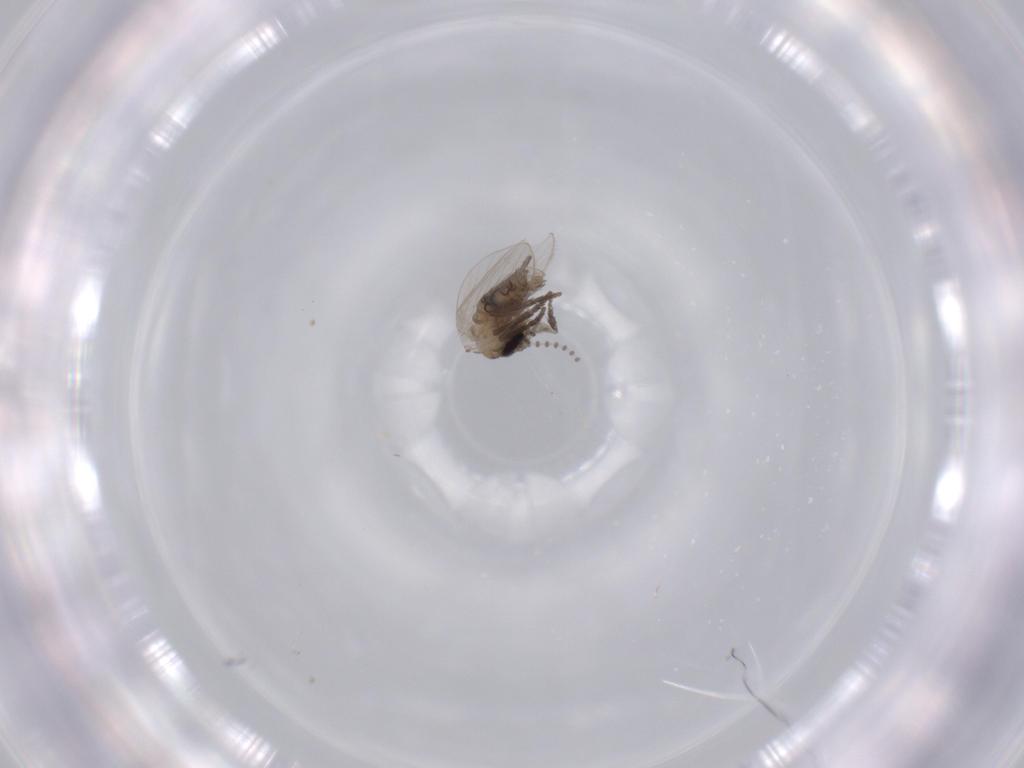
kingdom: Animalia
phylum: Arthropoda
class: Insecta
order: Diptera
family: Psychodidae
